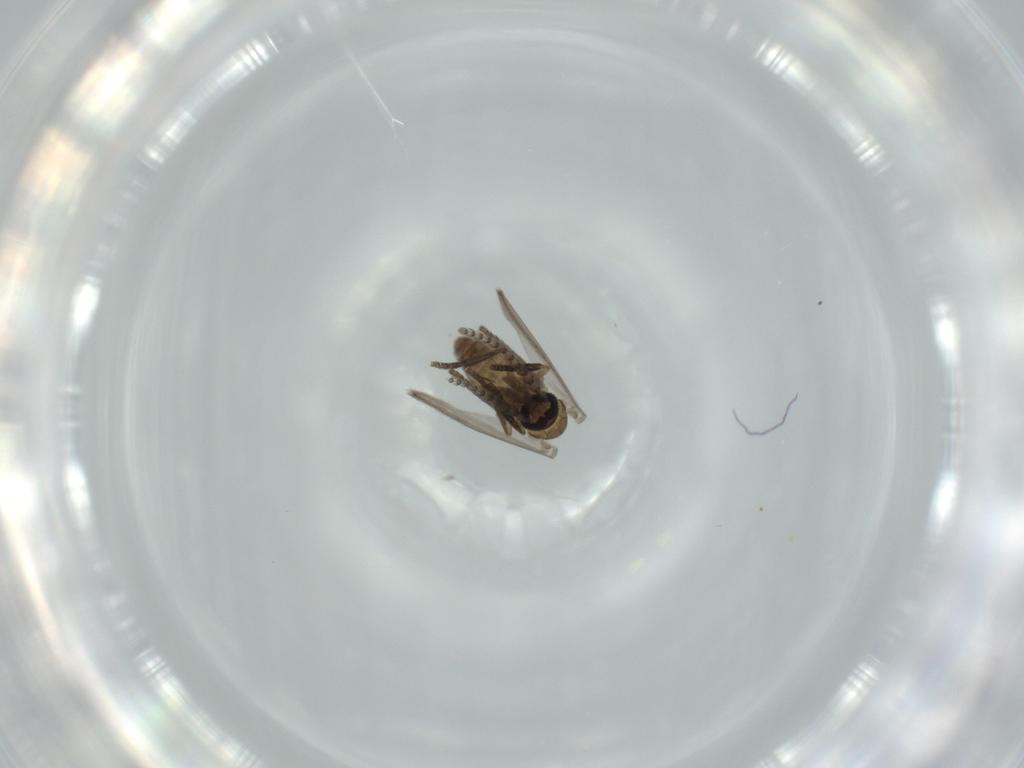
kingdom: Animalia
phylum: Arthropoda
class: Insecta
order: Diptera
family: Psychodidae
